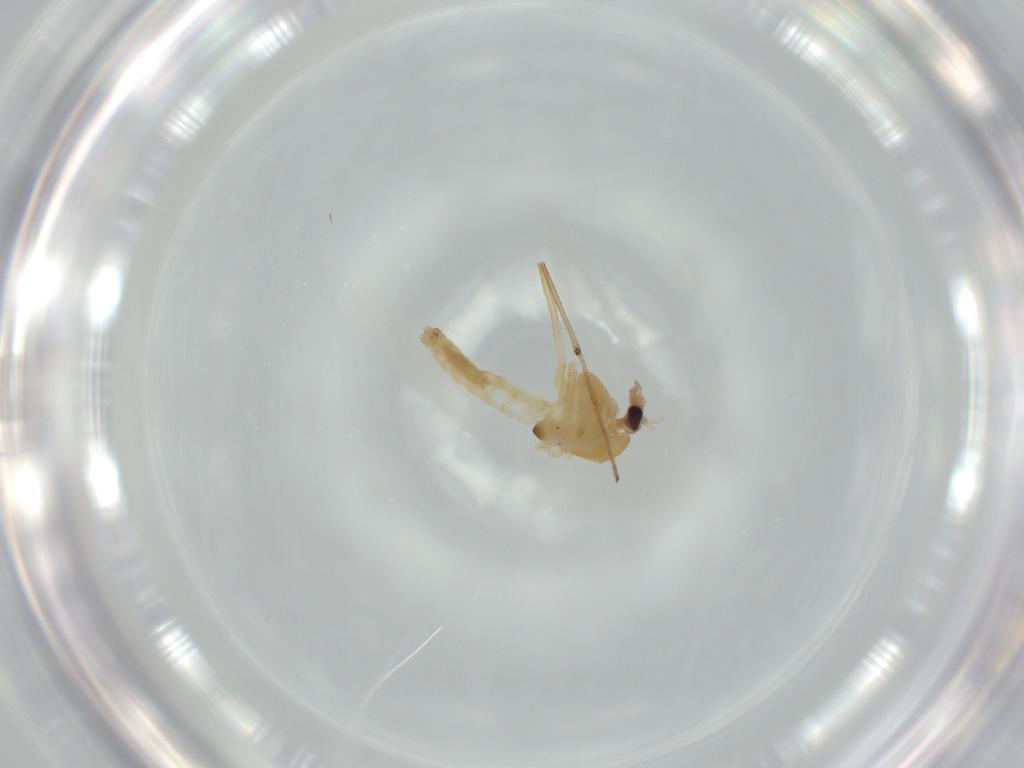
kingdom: Animalia
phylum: Arthropoda
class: Insecta
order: Diptera
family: Chironomidae
